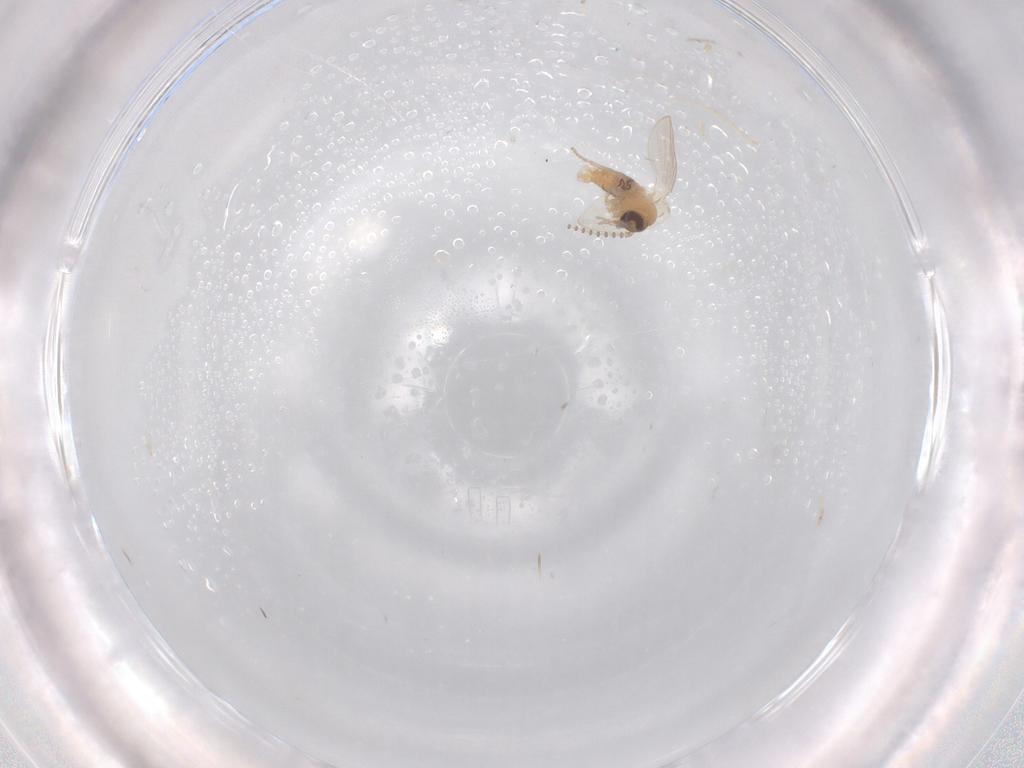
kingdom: Animalia
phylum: Arthropoda
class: Insecta
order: Diptera
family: Psychodidae
